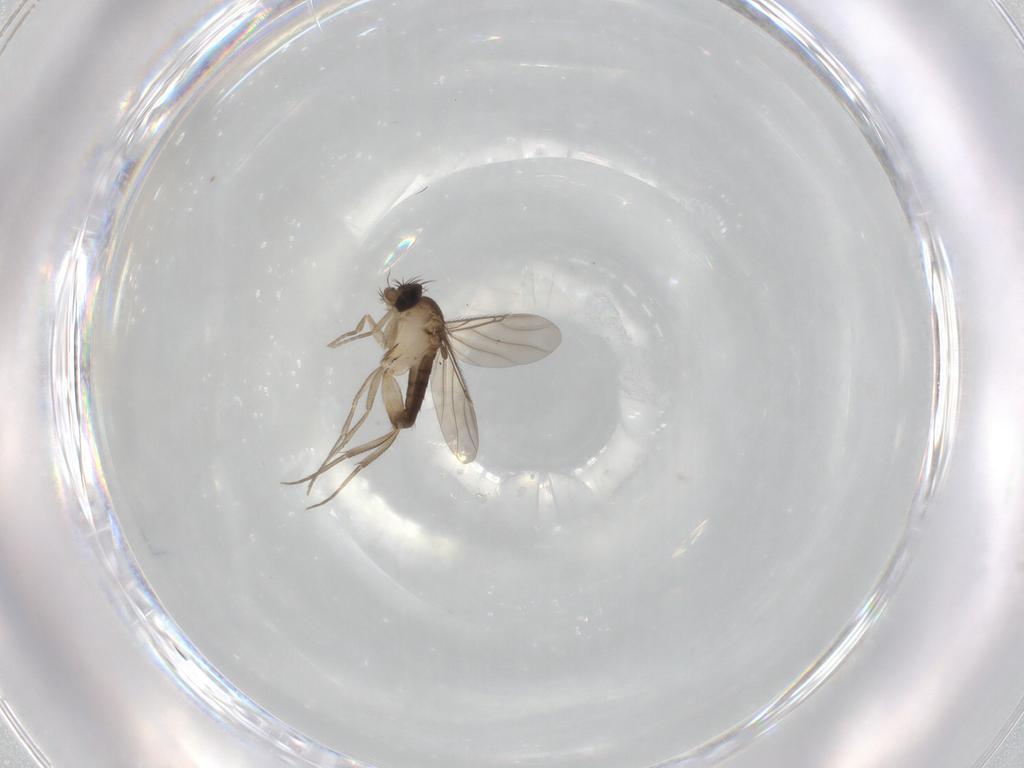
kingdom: Animalia
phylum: Arthropoda
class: Insecta
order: Diptera
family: Phoridae
